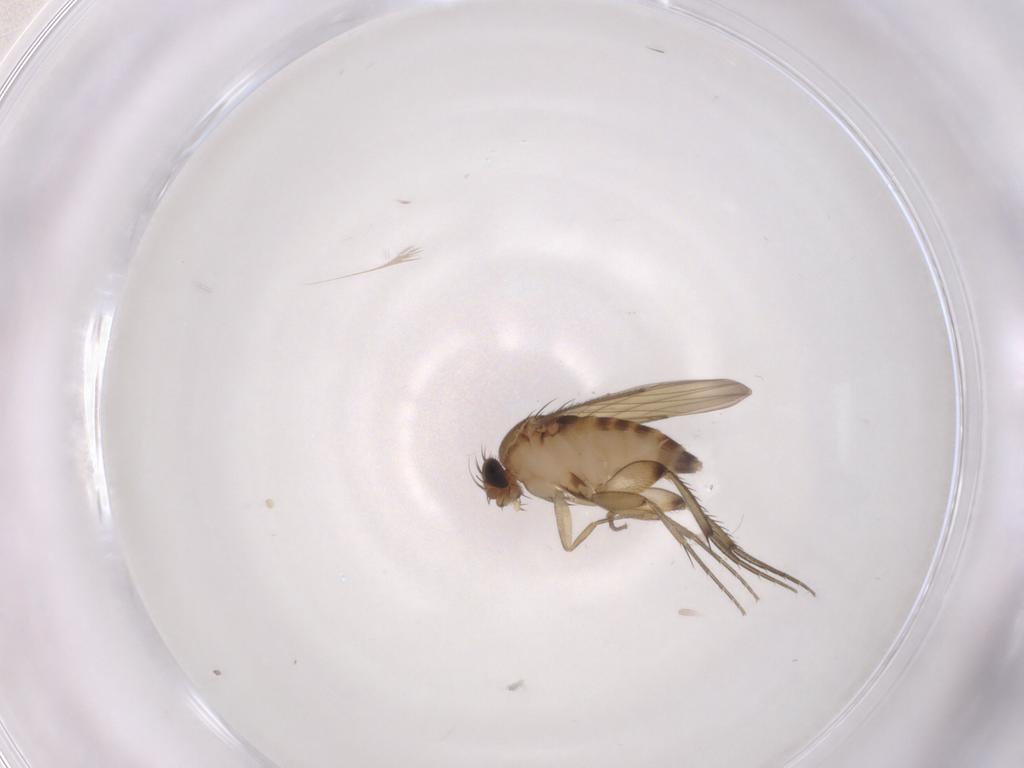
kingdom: Animalia
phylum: Arthropoda
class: Insecta
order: Diptera
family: Phoridae
